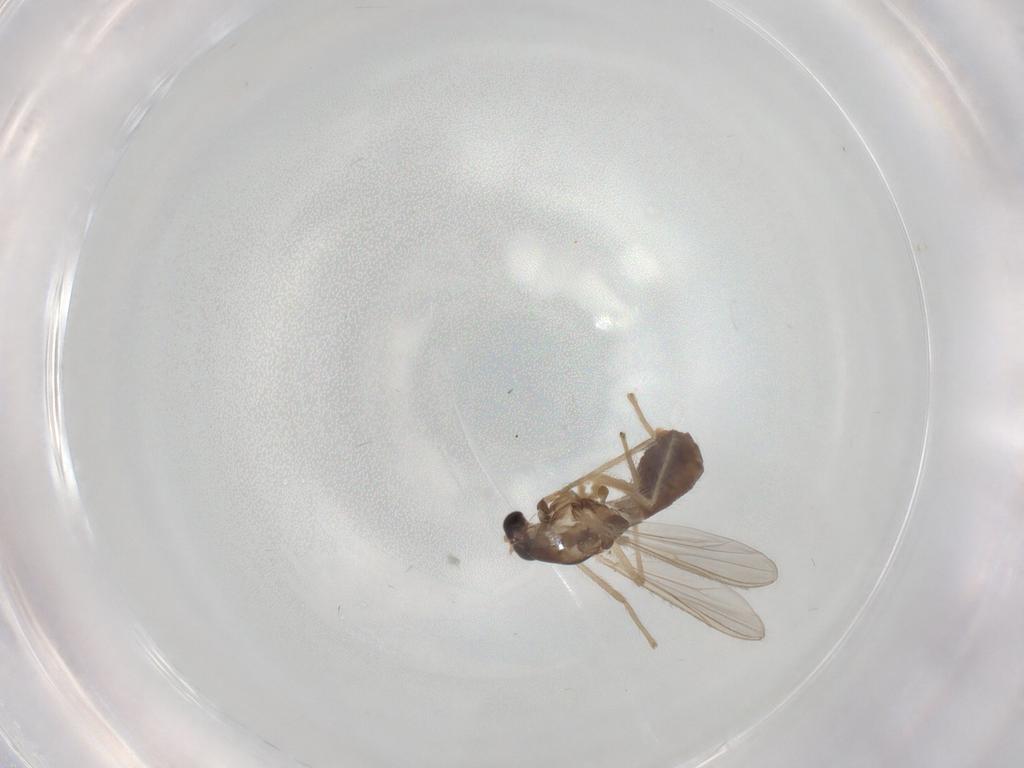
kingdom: Animalia
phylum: Arthropoda
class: Insecta
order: Diptera
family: Chironomidae
